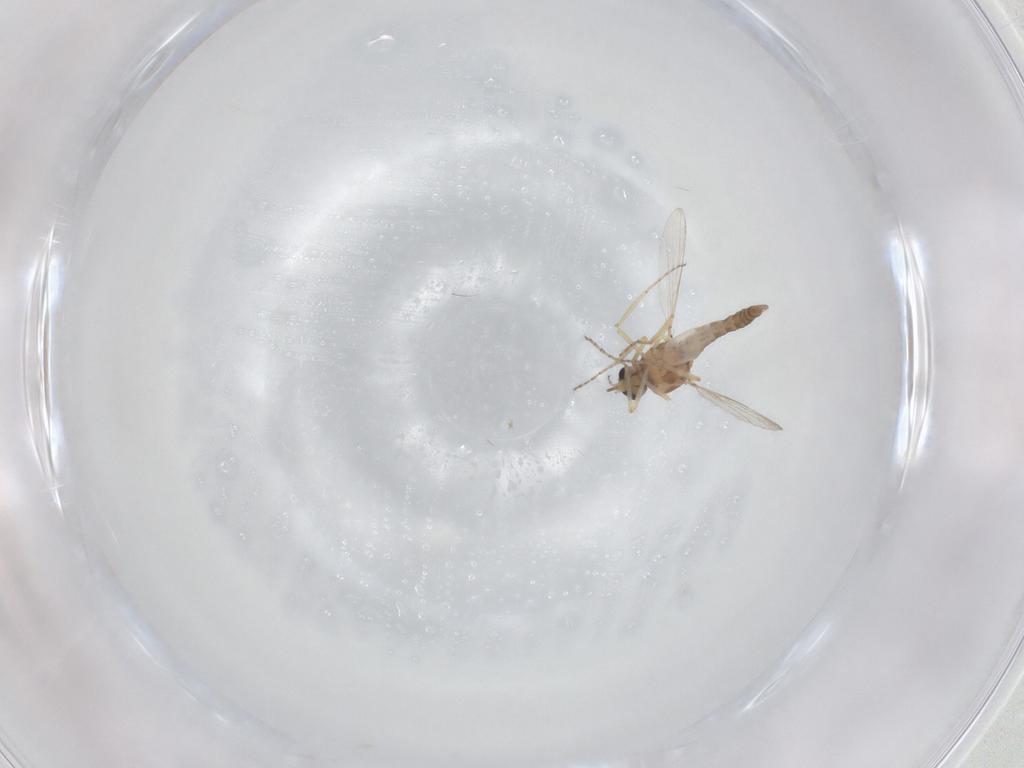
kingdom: Animalia
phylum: Arthropoda
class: Insecta
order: Diptera
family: Ceratopogonidae
